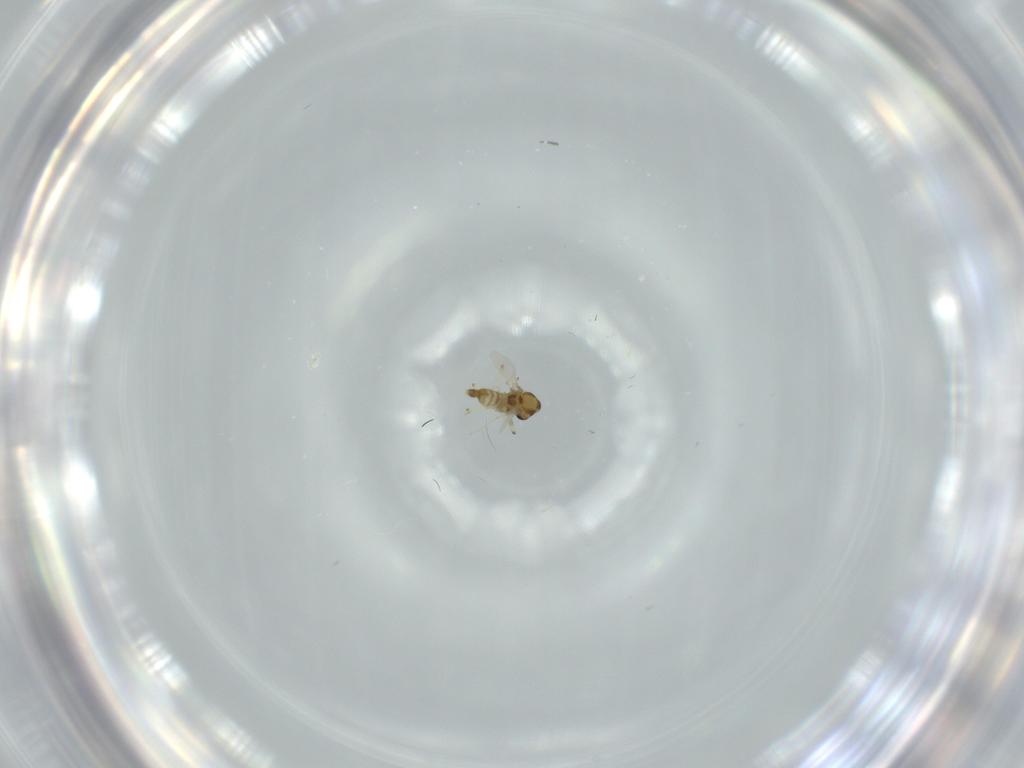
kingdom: Animalia
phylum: Arthropoda
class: Insecta
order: Diptera
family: Chironomidae
